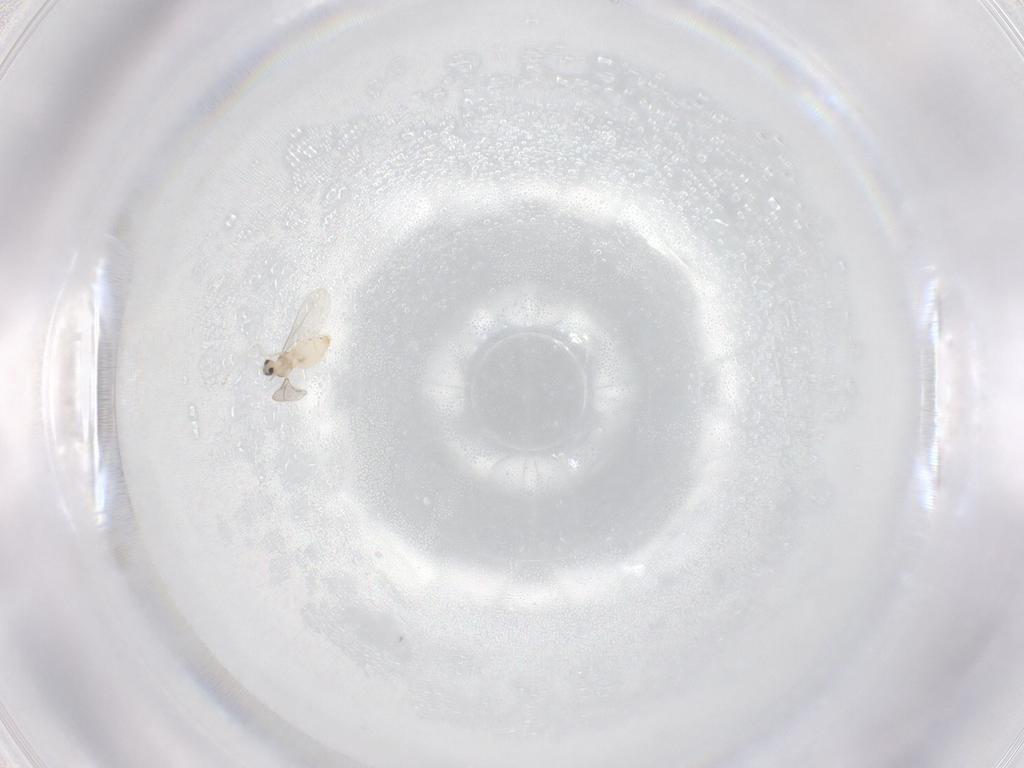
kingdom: Animalia
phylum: Arthropoda
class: Insecta
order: Diptera
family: Cecidomyiidae
